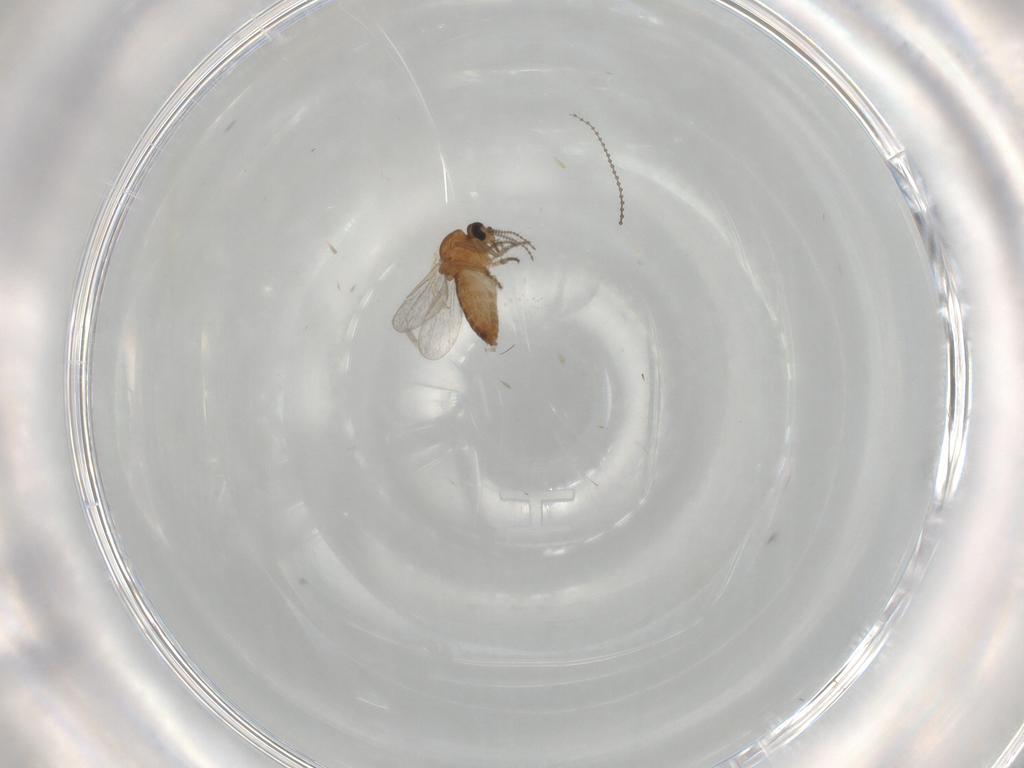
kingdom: Animalia
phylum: Arthropoda
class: Insecta
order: Diptera
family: Ceratopogonidae
